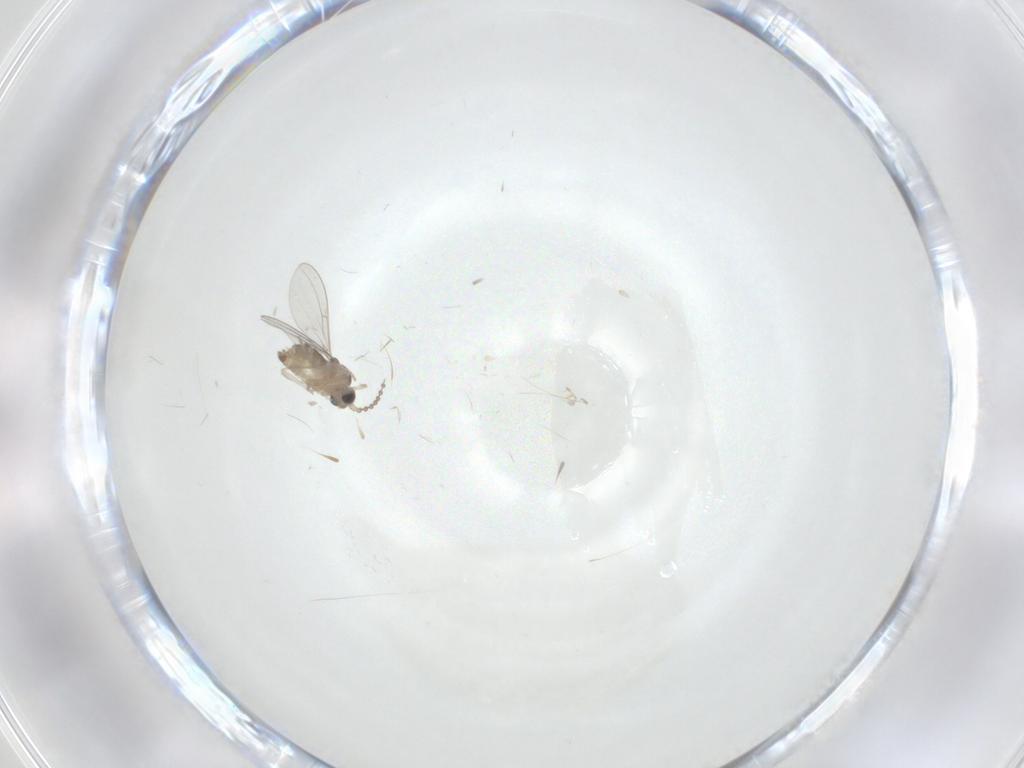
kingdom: Animalia
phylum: Arthropoda
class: Insecta
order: Diptera
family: Cecidomyiidae
